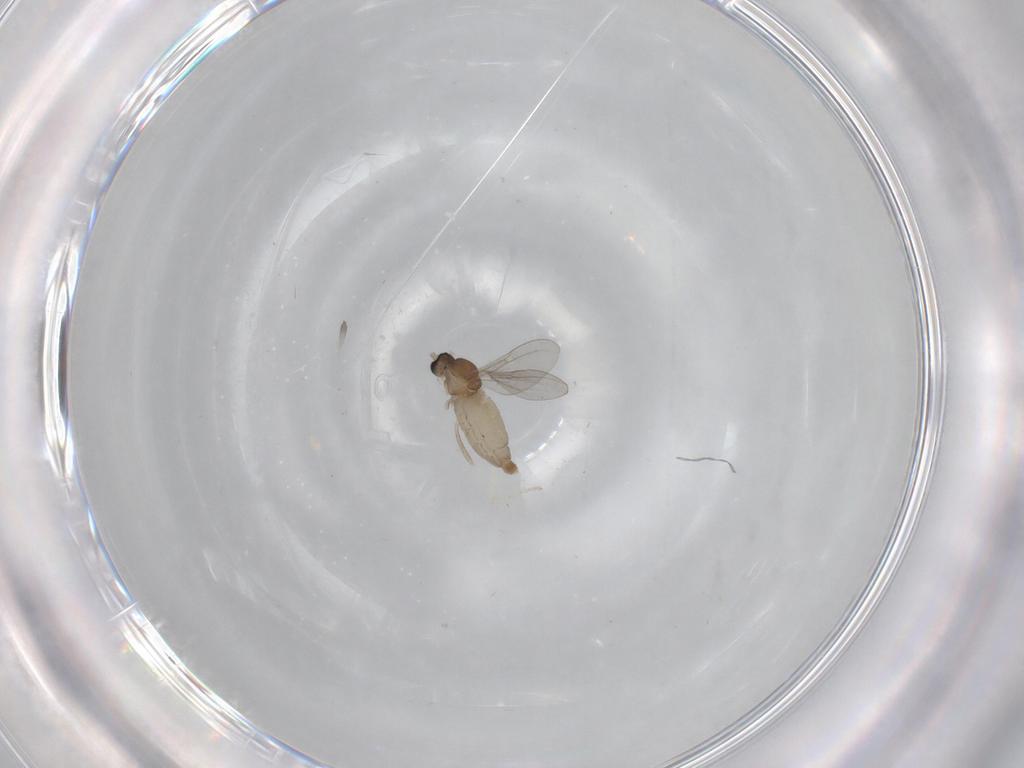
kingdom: Animalia
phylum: Arthropoda
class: Insecta
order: Diptera
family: Cecidomyiidae
